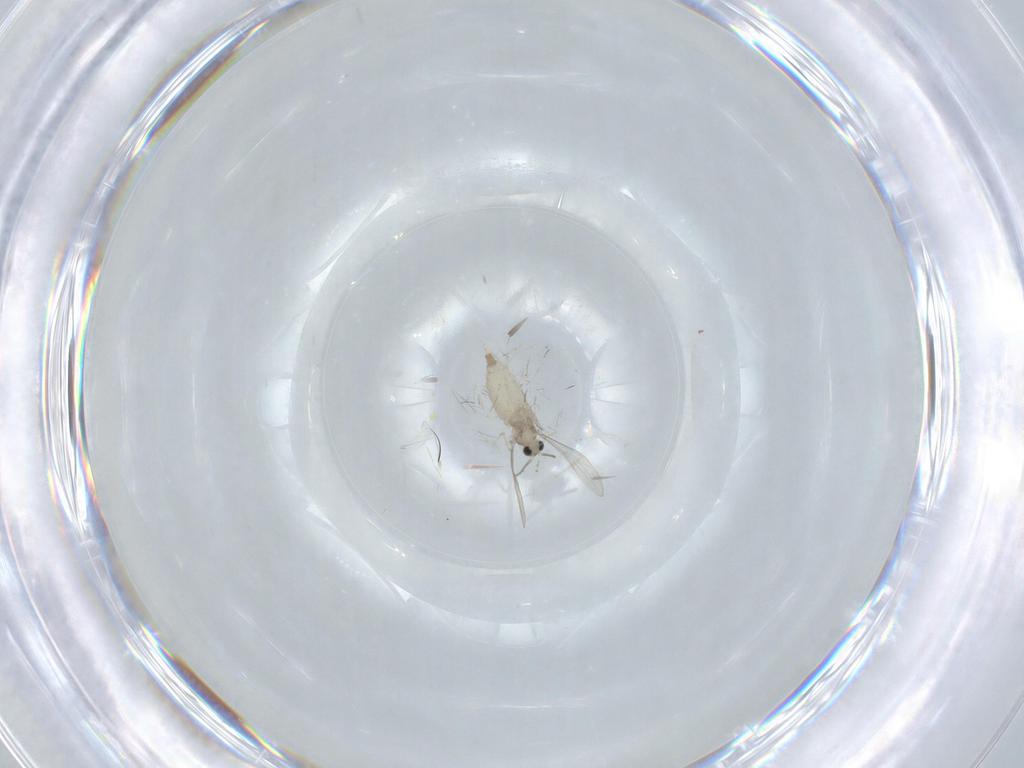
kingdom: Animalia
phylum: Arthropoda
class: Insecta
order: Diptera
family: Cecidomyiidae
